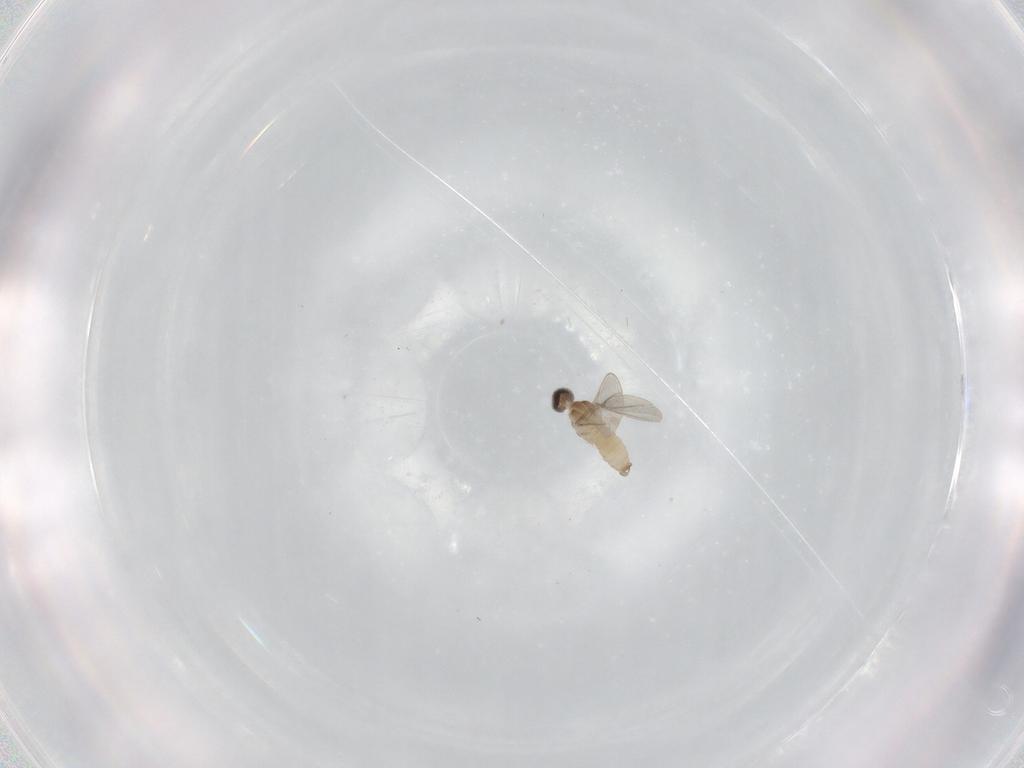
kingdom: Animalia
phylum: Arthropoda
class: Insecta
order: Diptera
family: Cecidomyiidae
